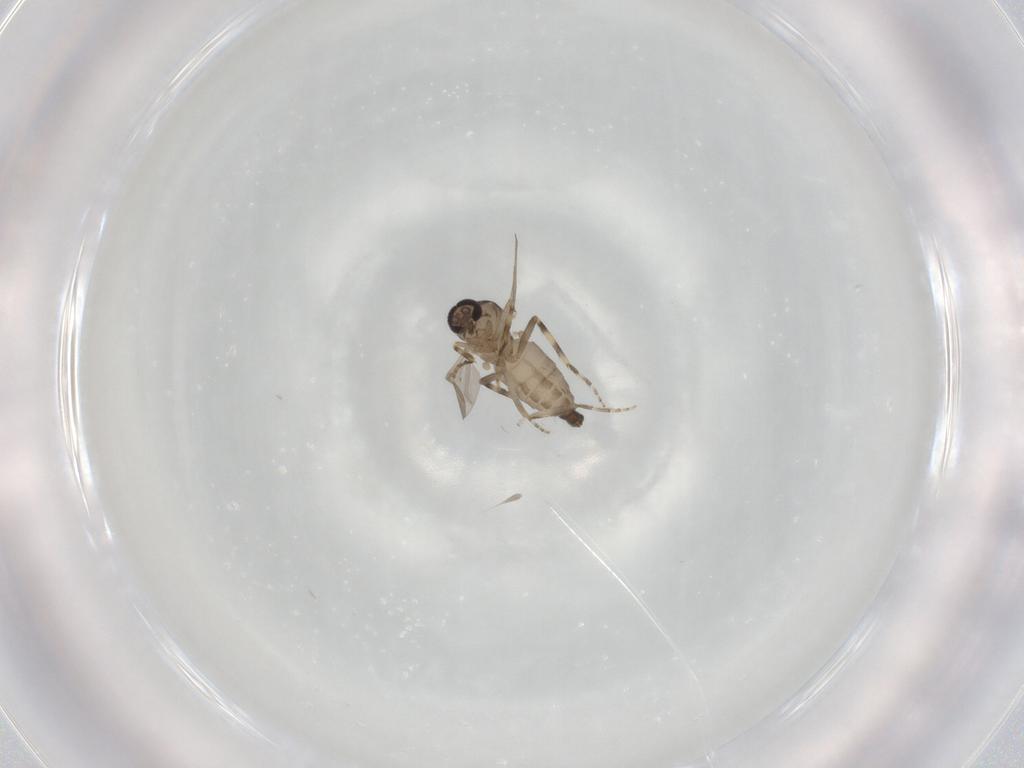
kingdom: Animalia
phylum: Arthropoda
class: Insecta
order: Diptera
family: Ceratopogonidae
